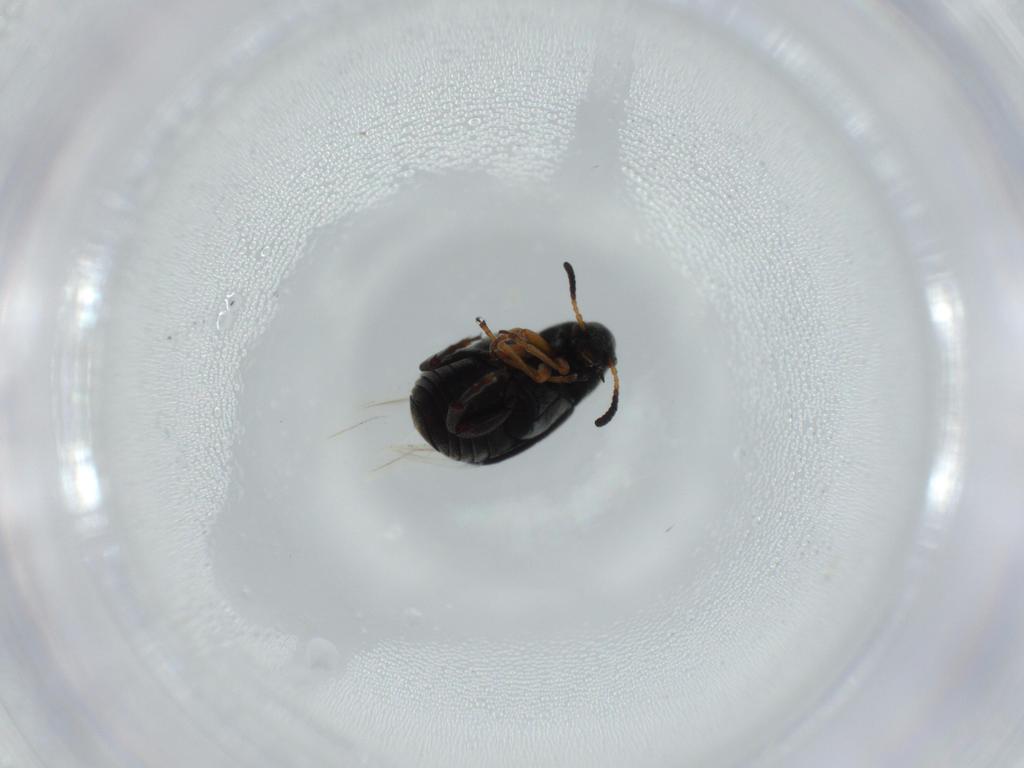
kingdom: Animalia
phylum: Arthropoda
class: Insecta
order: Coleoptera
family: Chrysomelidae
